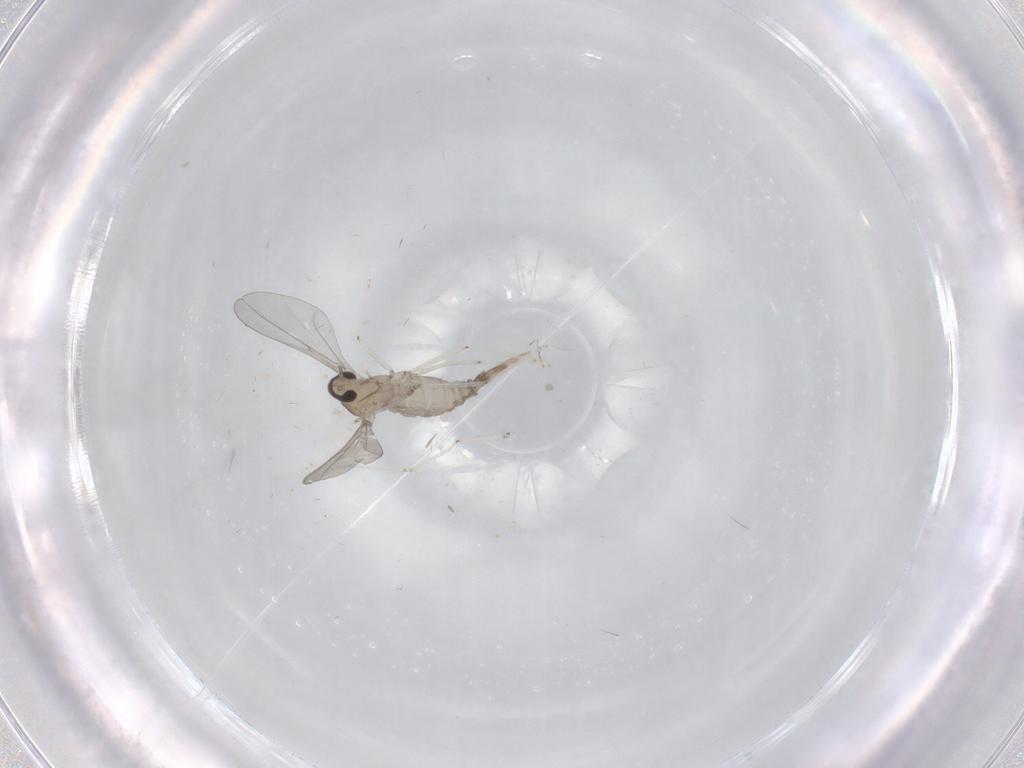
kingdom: Animalia
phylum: Arthropoda
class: Insecta
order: Diptera
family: Cecidomyiidae
